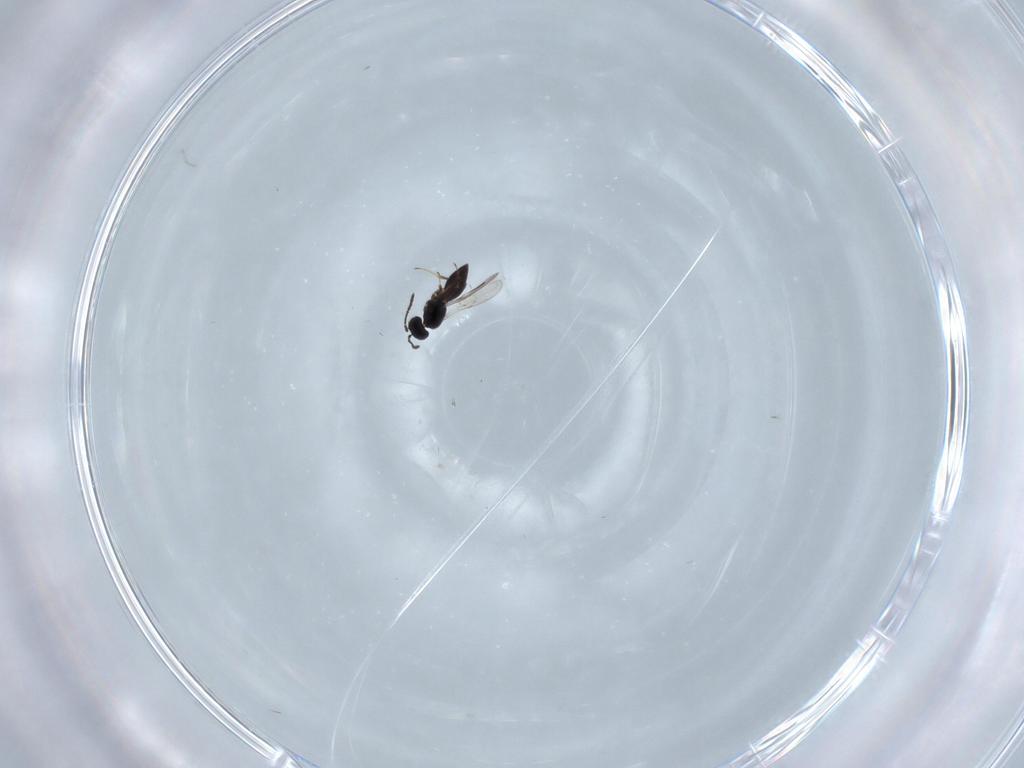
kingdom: Animalia
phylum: Arthropoda
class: Insecta
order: Hymenoptera
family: Scelionidae
